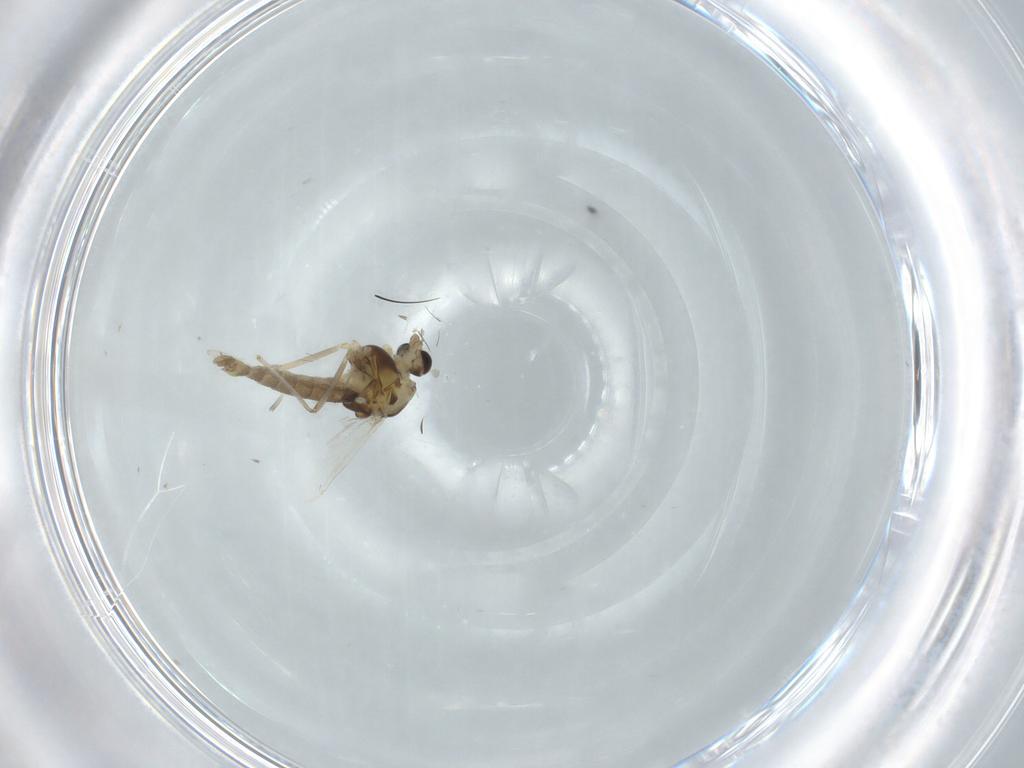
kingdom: Animalia
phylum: Arthropoda
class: Insecta
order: Diptera
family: Chironomidae
